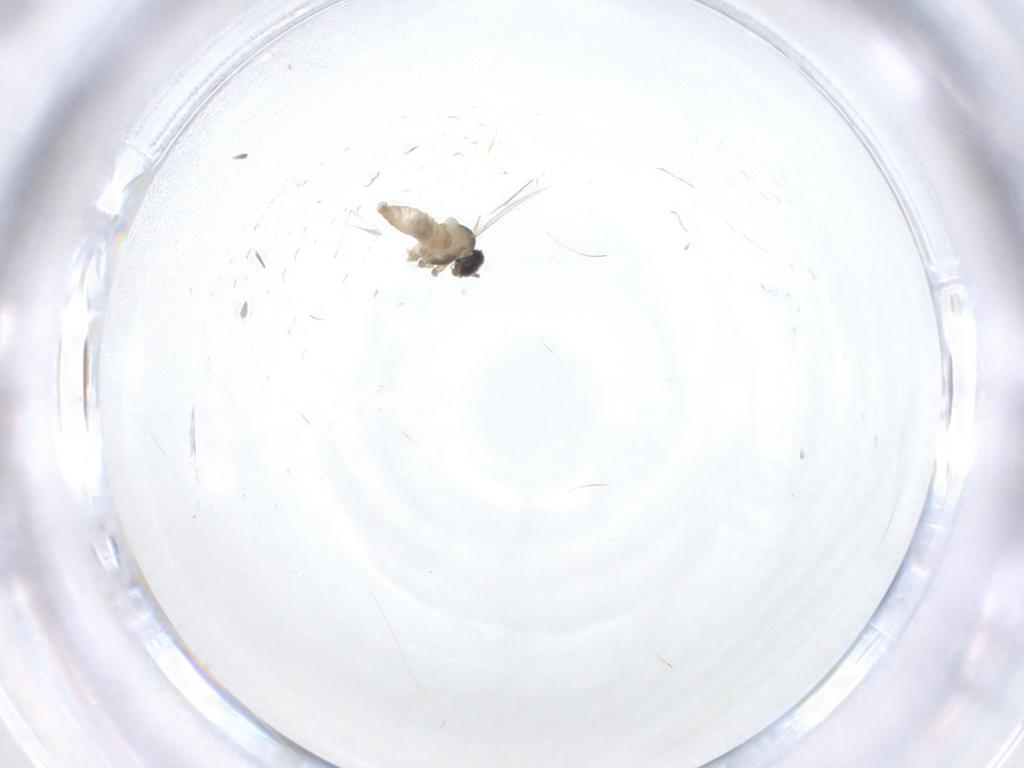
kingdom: Animalia
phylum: Arthropoda
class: Insecta
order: Diptera
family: Cecidomyiidae
